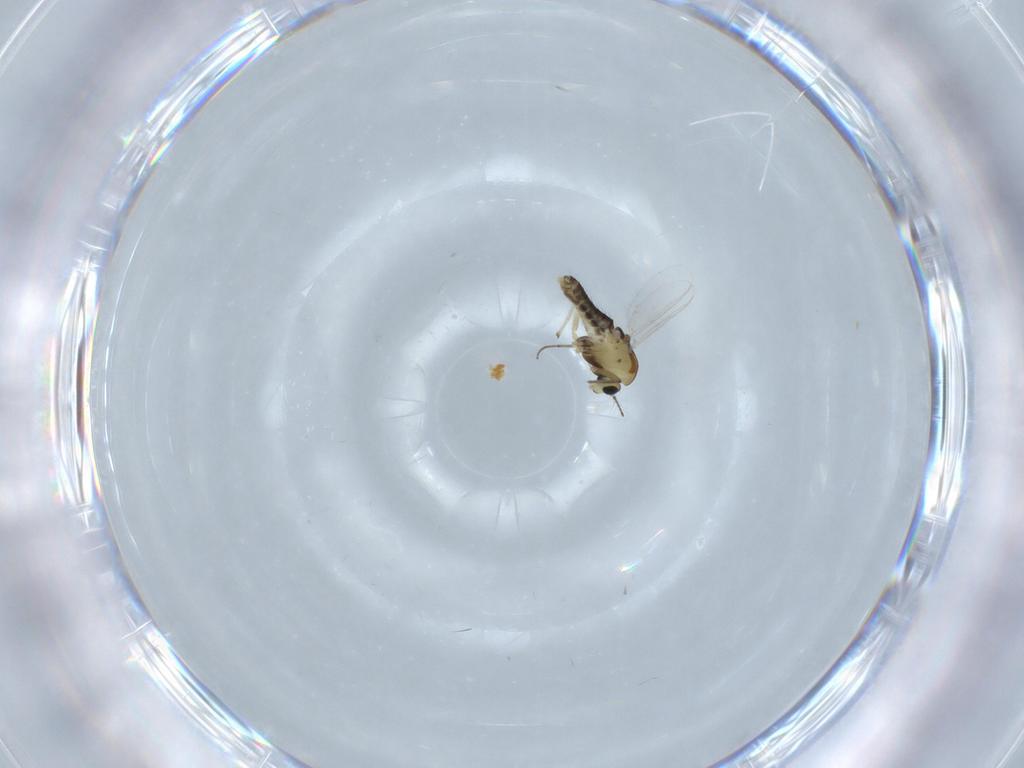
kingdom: Animalia
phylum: Arthropoda
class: Insecta
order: Diptera
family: Chironomidae
